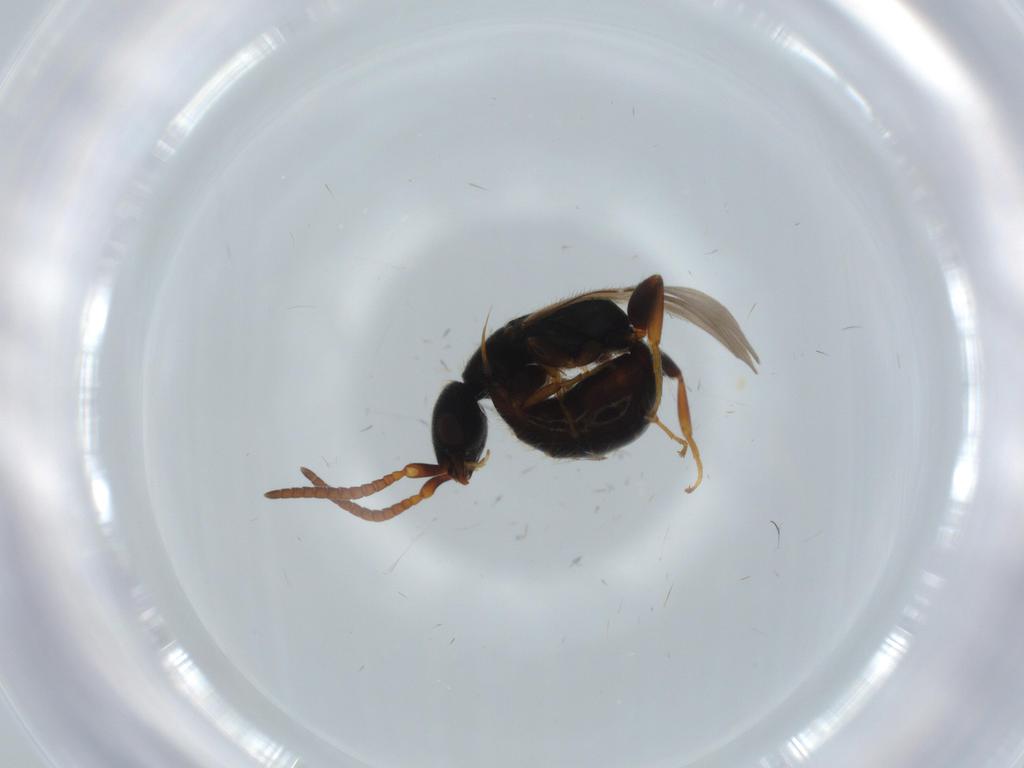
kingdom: Animalia
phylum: Arthropoda
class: Insecta
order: Hymenoptera
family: Bethylidae
